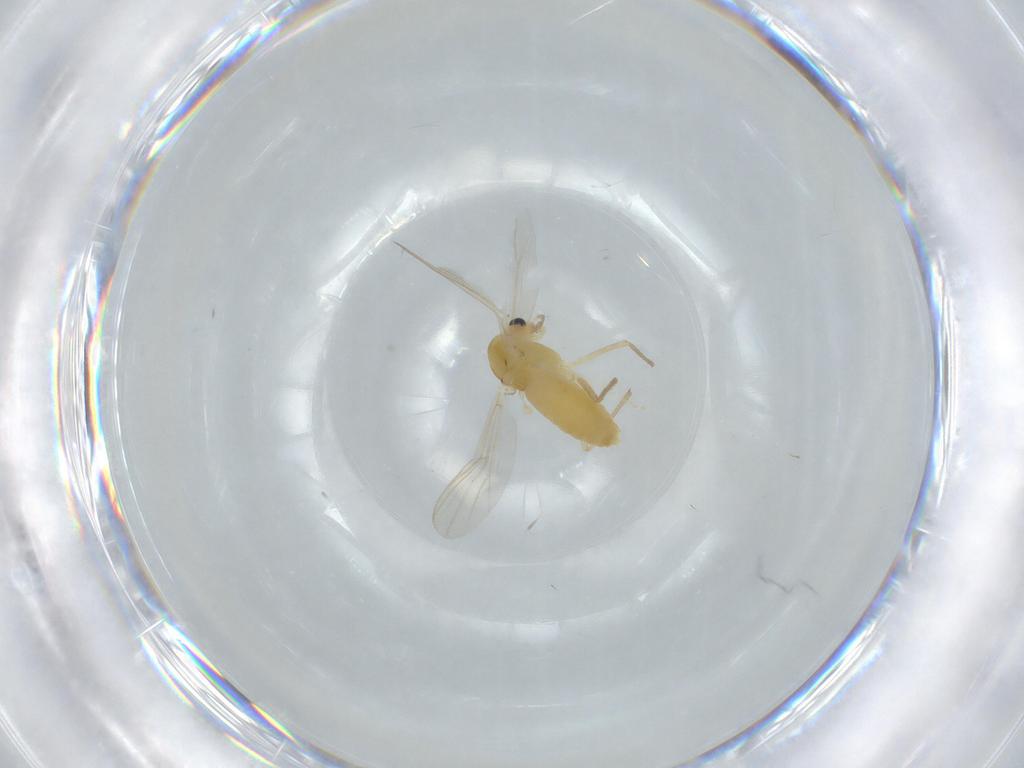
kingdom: Animalia
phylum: Arthropoda
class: Insecta
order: Diptera
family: Chironomidae
